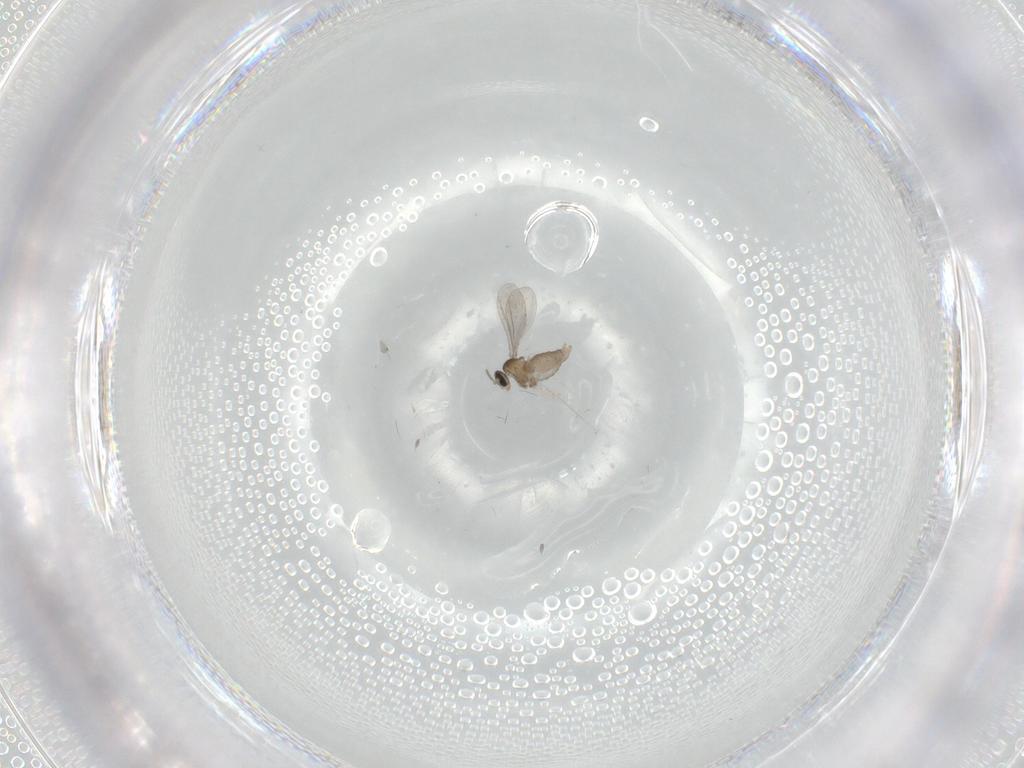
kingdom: Animalia
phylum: Arthropoda
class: Insecta
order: Diptera
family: Cecidomyiidae
